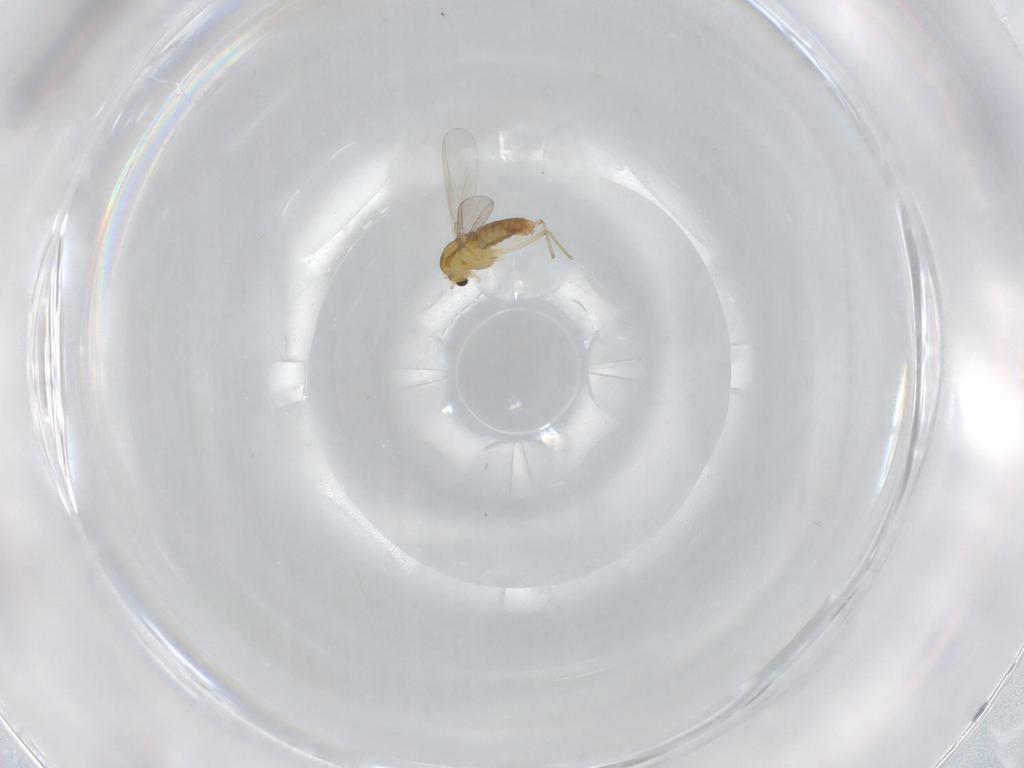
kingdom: Animalia
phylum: Arthropoda
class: Insecta
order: Diptera
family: Chironomidae
